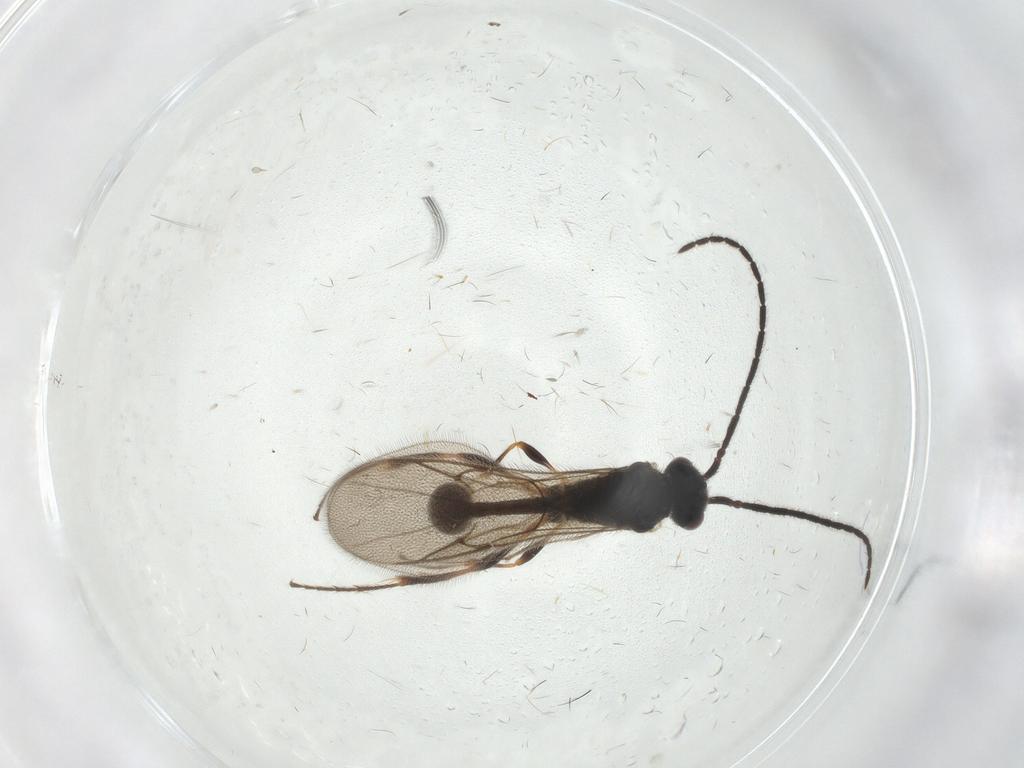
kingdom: Animalia
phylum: Arthropoda
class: Insecta
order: Hymenoptera
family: Diapriidae
